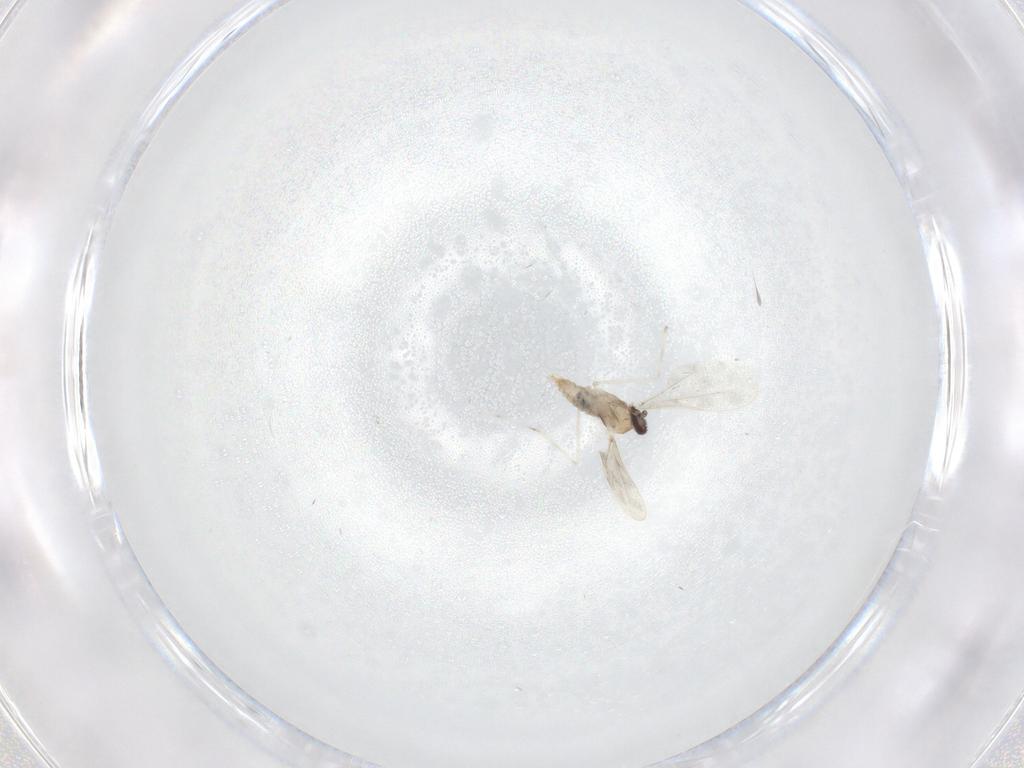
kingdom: Animalia
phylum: Arthropoda
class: Insecta
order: Diptera
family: Cecidomyiidae
